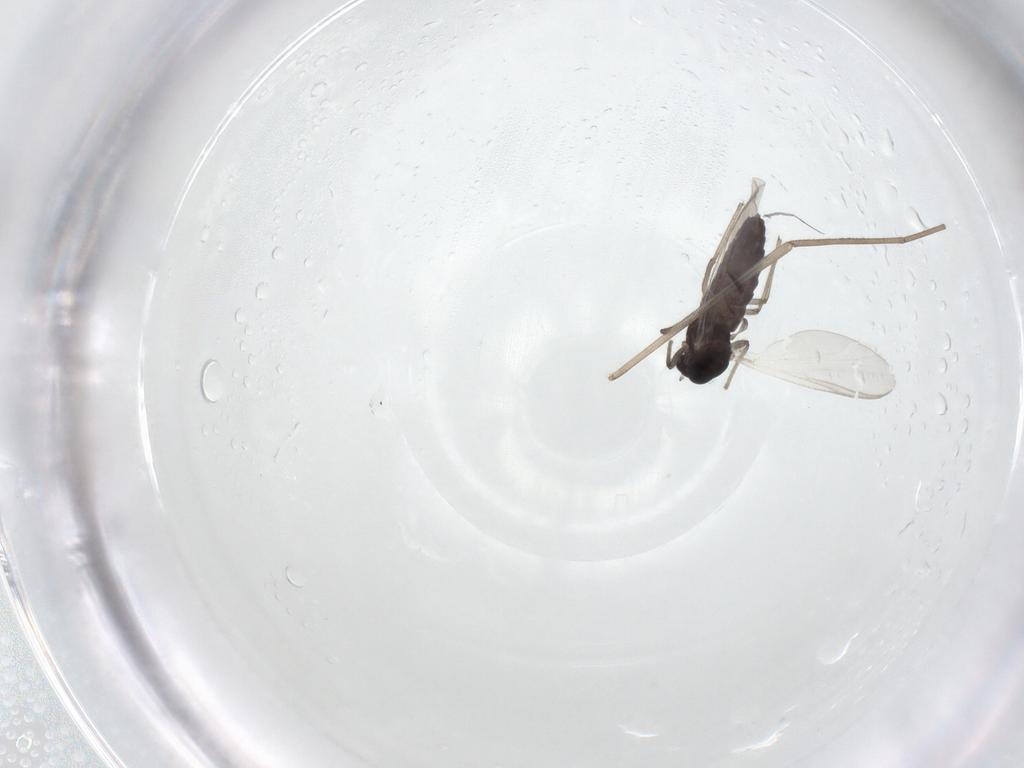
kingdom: Animalia
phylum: Arthropoda
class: Insecta
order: Diptera
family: Cecidomyiidae
